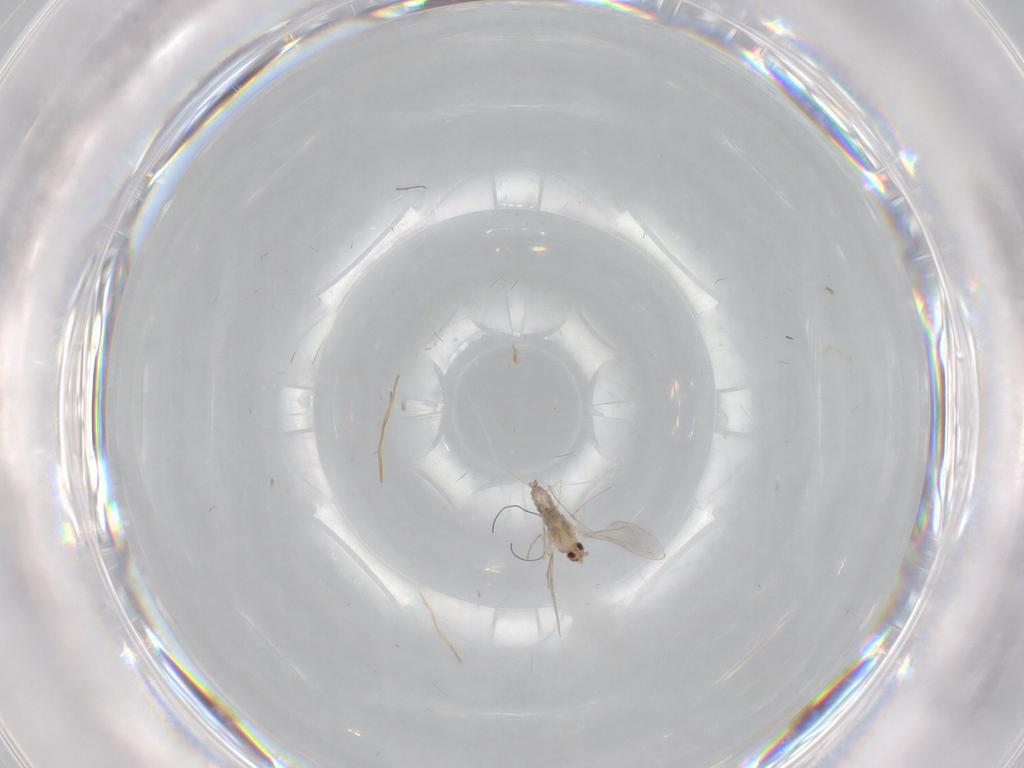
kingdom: Animalia
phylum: Arthropoda
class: Insecta
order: Diptera
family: Cecidomyiidae
